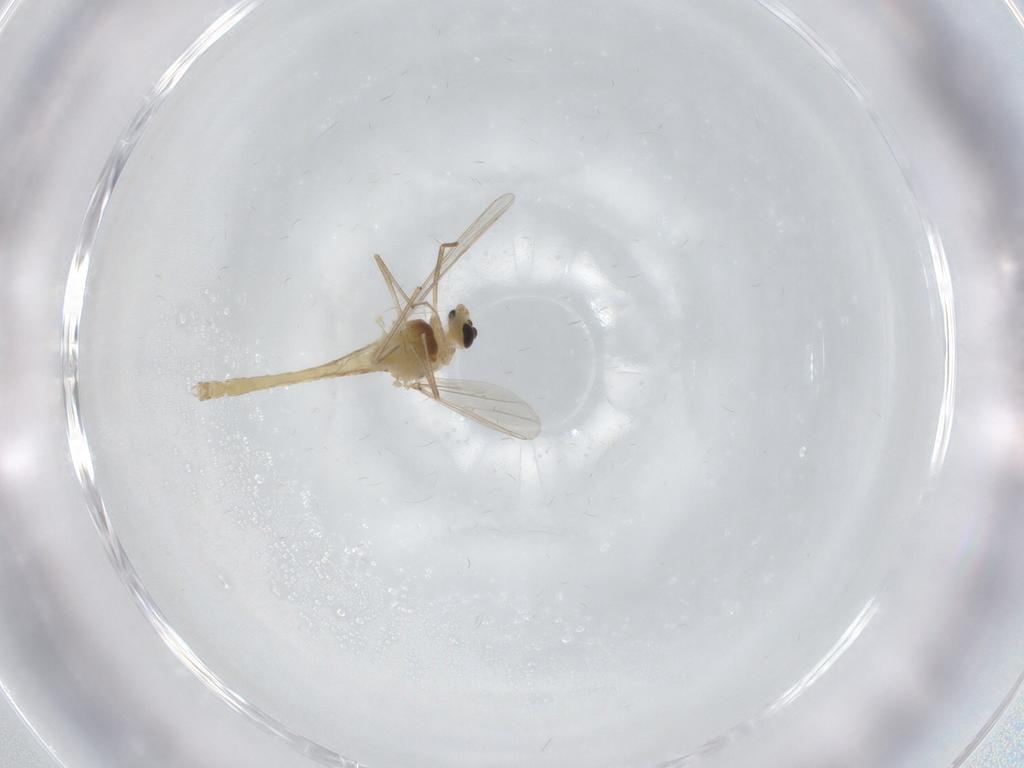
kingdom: Animalia
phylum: Arthropoda
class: Insecta
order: Diptera
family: Chironomidae
